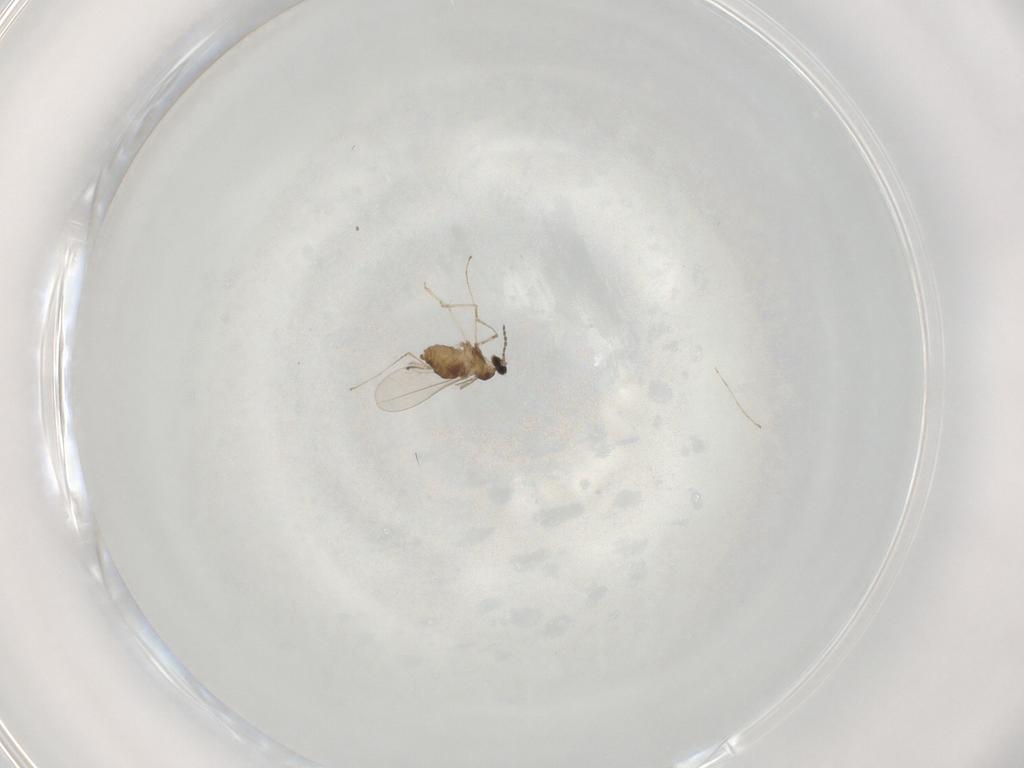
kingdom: Animalia
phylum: Arthropoda
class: Insecta
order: Diptera
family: Cecidomyiidae
